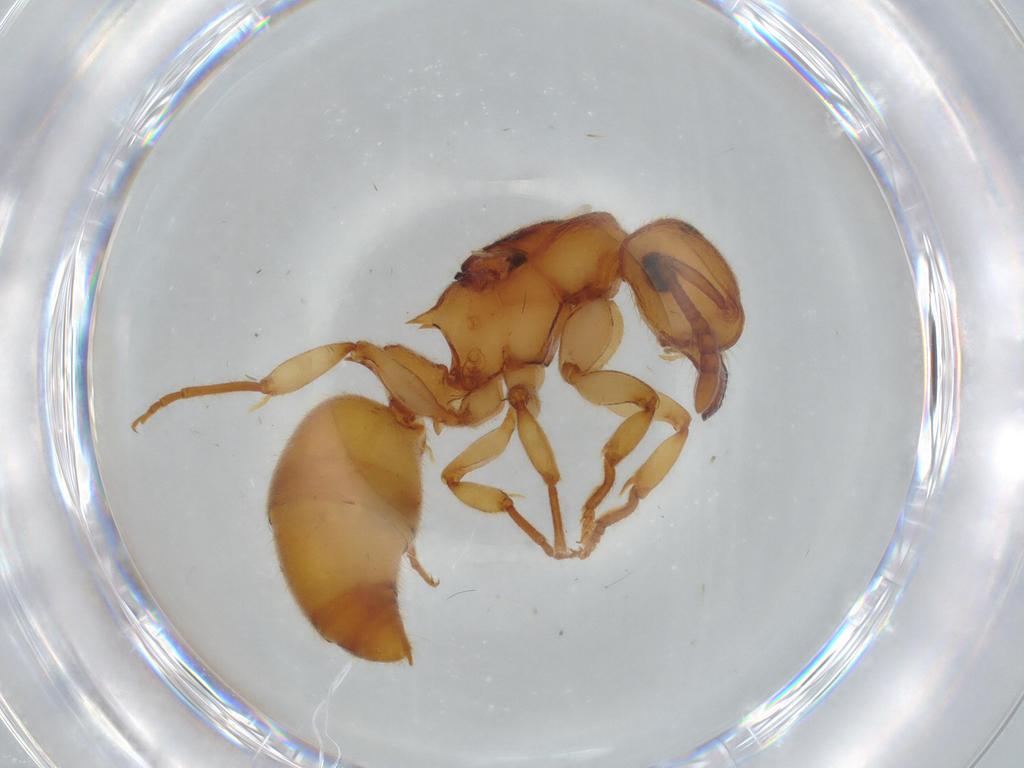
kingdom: Animalia
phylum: Arthropoda
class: Insecta
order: Hymenoptera
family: Formicidae
